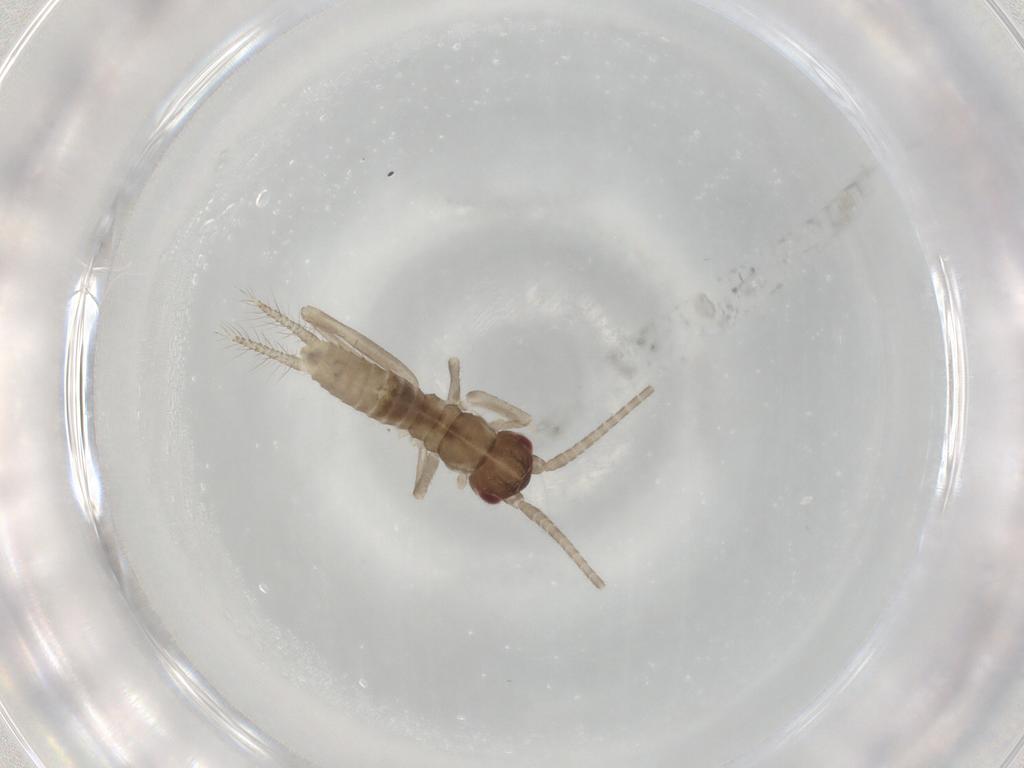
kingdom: Animalia
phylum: Arthropoda
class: Insecta
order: Orthoptera
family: Gryllidae
